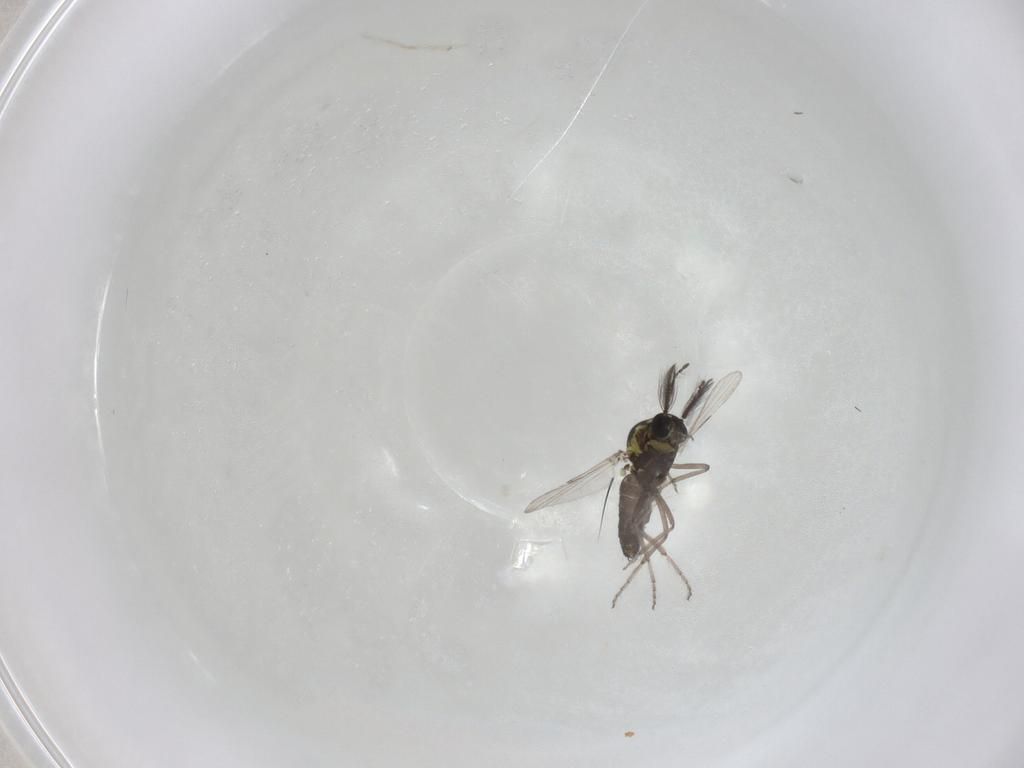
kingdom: Animalia
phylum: Arthropoda
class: Insecta
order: Diptera
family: Ceratopogonidae
